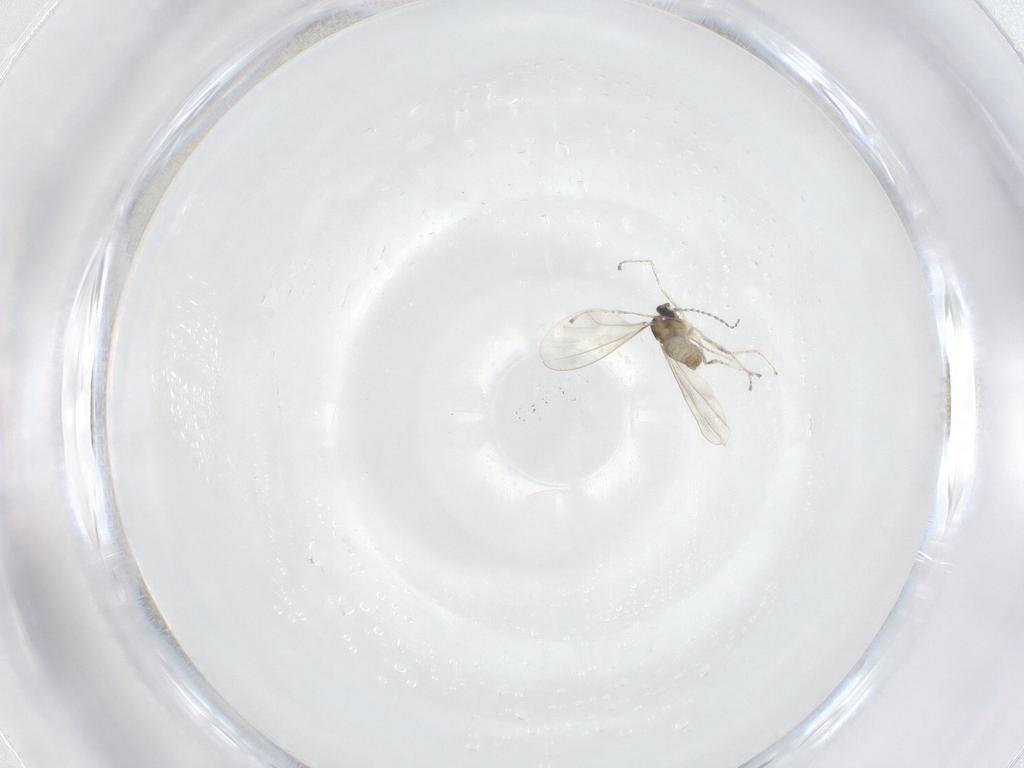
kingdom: Animalia
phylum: Arthropoda
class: Insecta
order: Diptera
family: Cecidomyiidae
